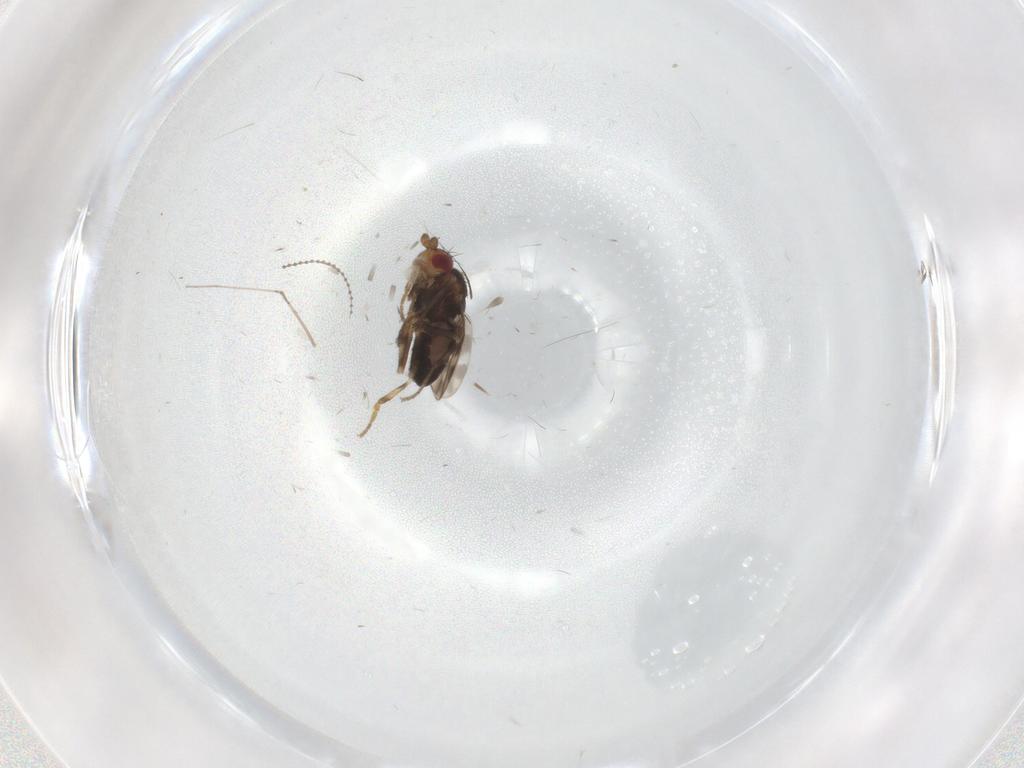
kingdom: Animalia
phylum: Arthropoda
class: Insecta
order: Diptera
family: Sphaeroceridae
